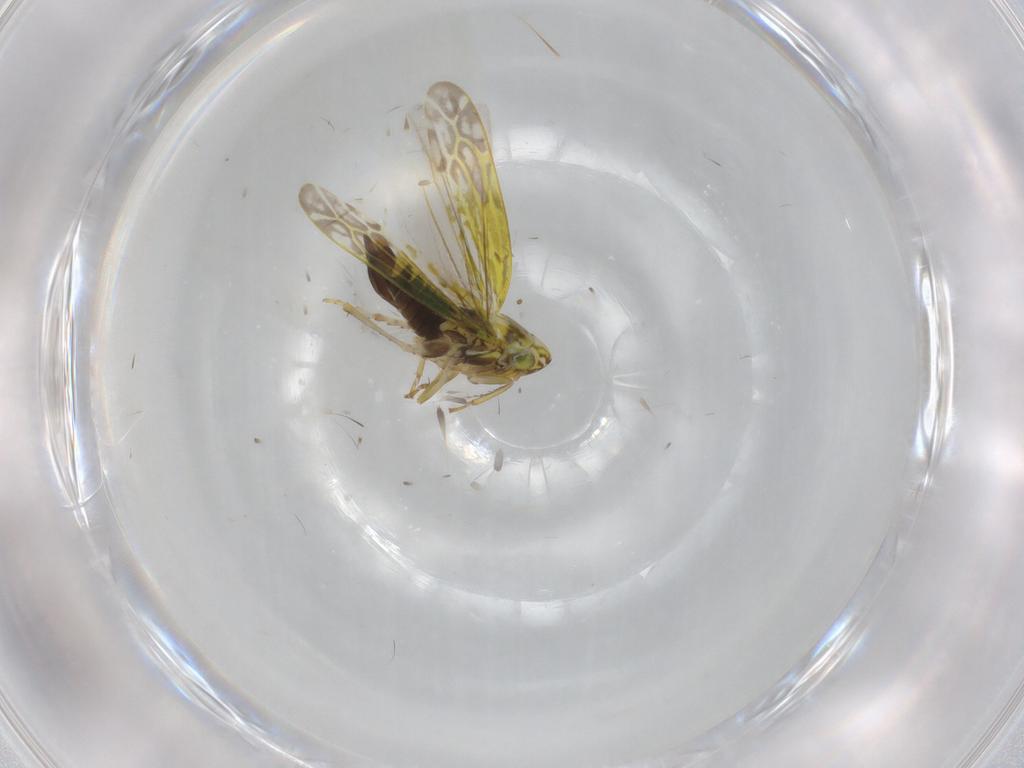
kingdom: Animalia
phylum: Arthropoda
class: Insecta
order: Hemiptera
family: Cicadellidae
